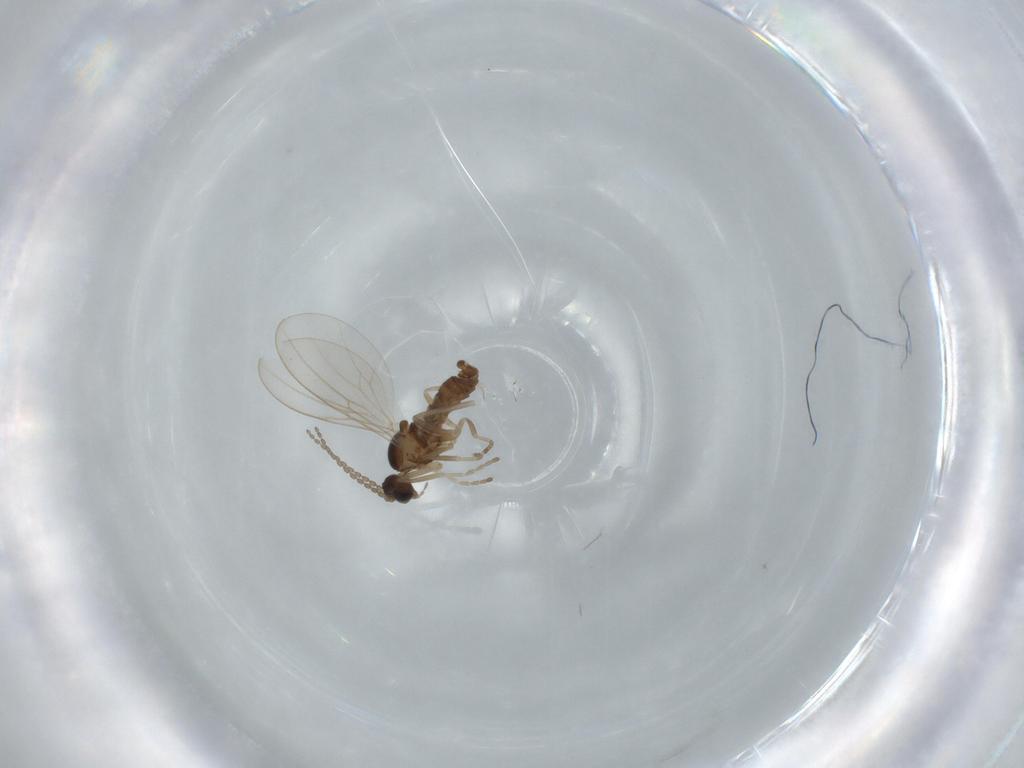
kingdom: Animalia
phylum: Arthropoda
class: Insecta
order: Diptera
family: Cecidomyiidae
